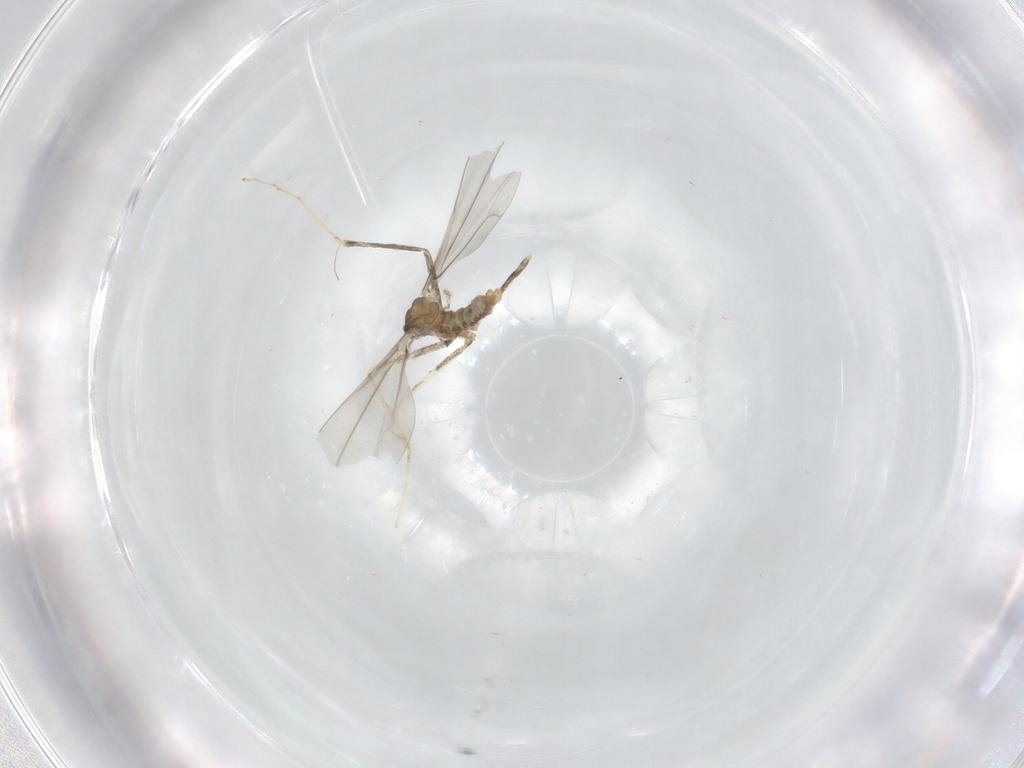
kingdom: Animalia
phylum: Arthropoda
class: Insecta
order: Diptera
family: Cecidomyiidae
